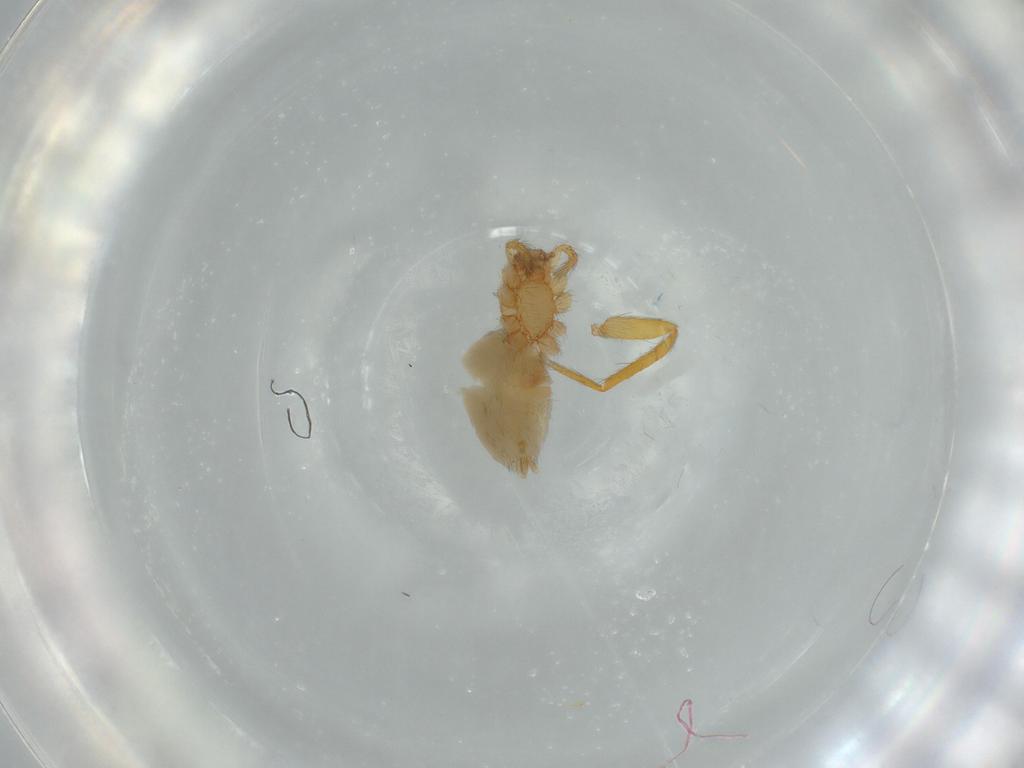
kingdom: Animalia
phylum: Arthropoda
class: Arachnida
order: Araneae
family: Oonopidae
